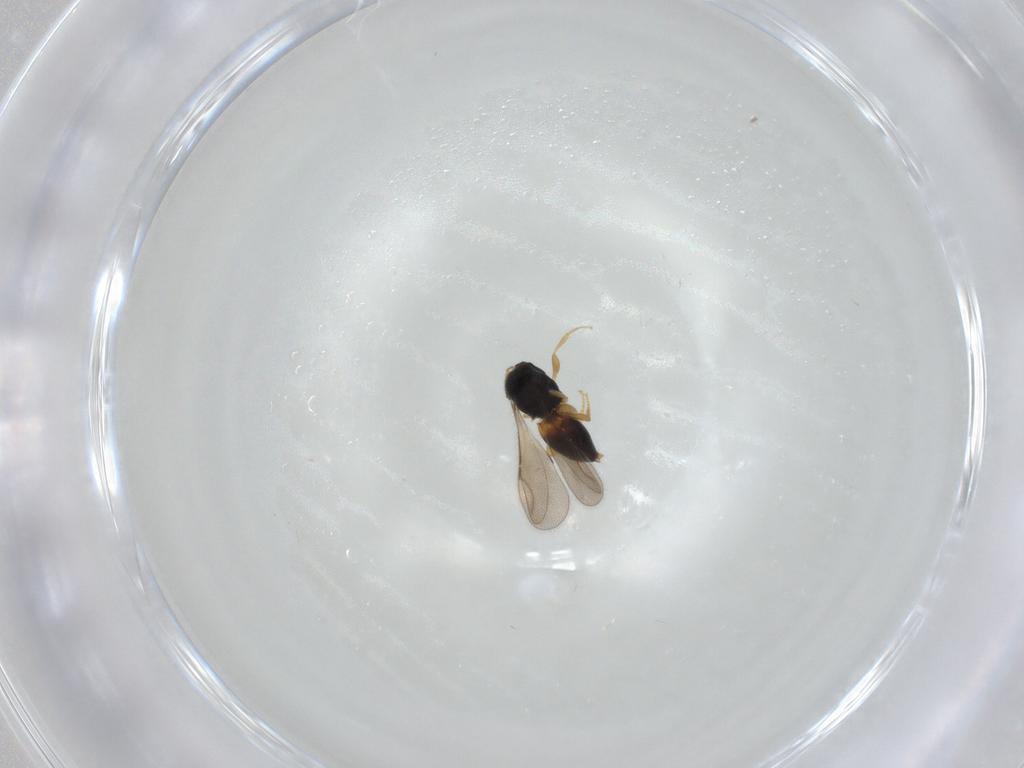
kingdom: Animalia
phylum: Arthropoda
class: Insecta
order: Hymenoptera
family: Ceraphronidae
